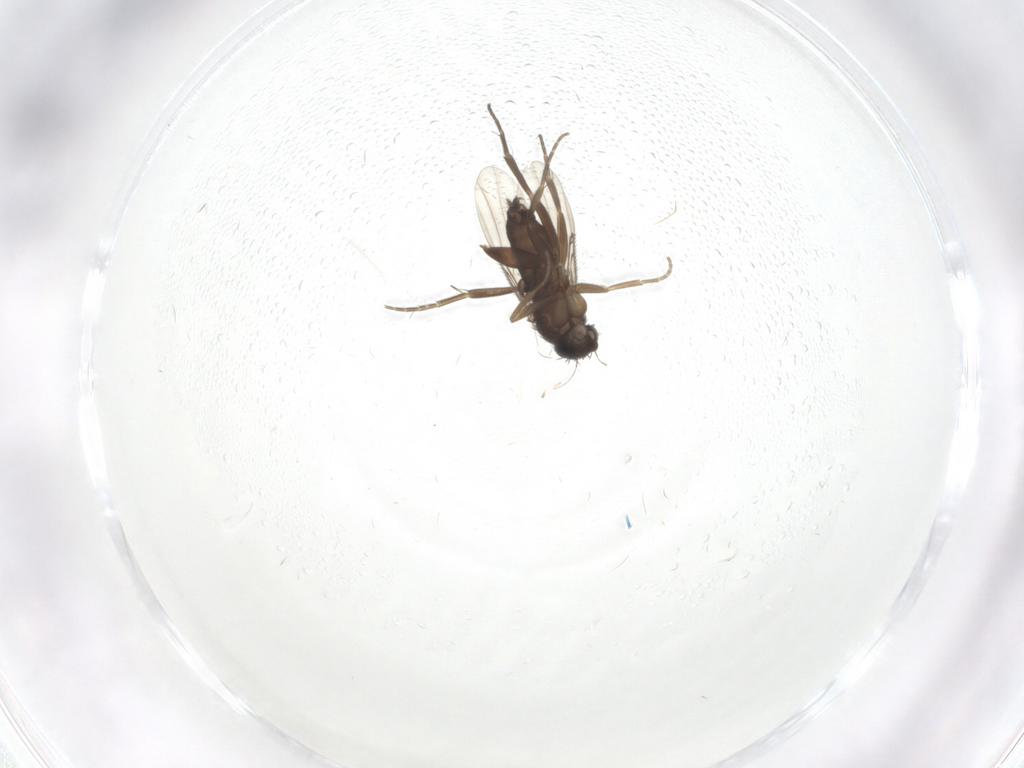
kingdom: Animalia
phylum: Arthropoda
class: Insecta
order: Diptera
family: Phoridae
